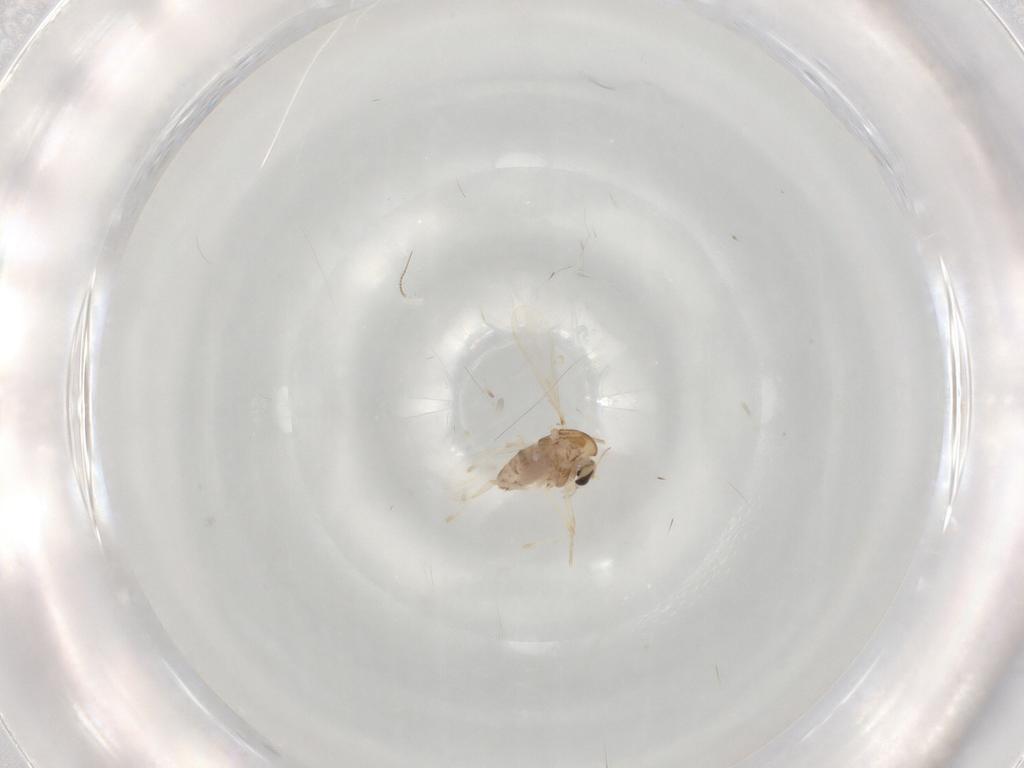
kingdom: Animalia
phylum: Arthropoda
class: Insecta
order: Diptera
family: Chironomidae
